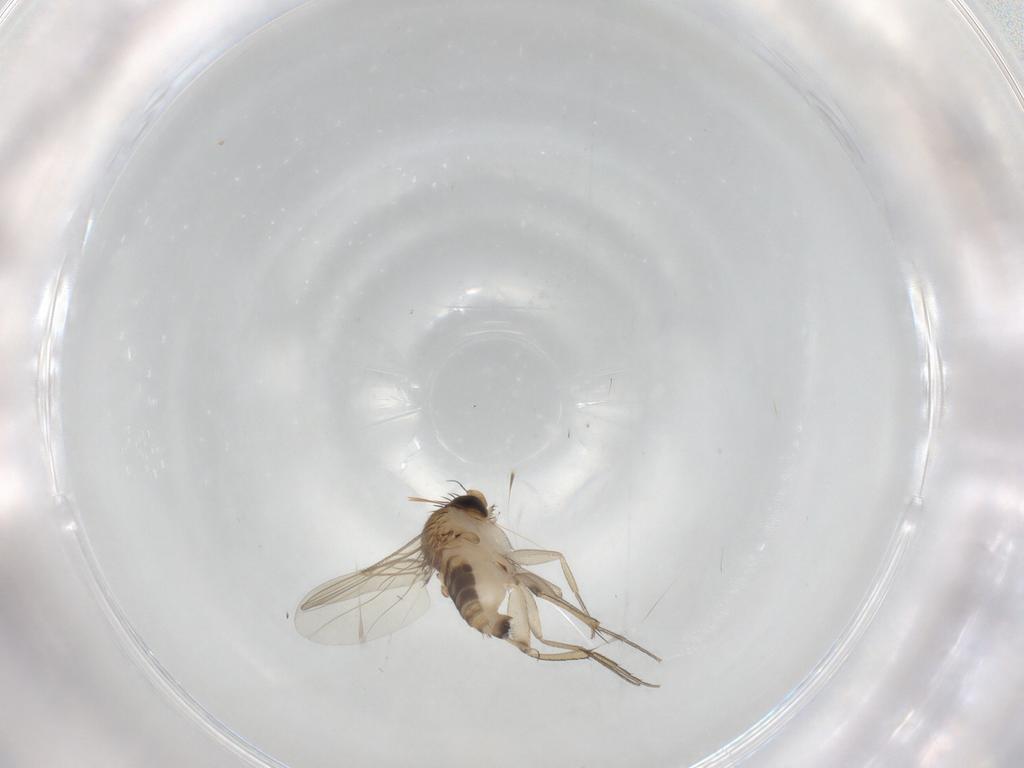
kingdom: Animalia
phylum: Arthropoda
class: Insecta
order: Diptera
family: Phoridae
